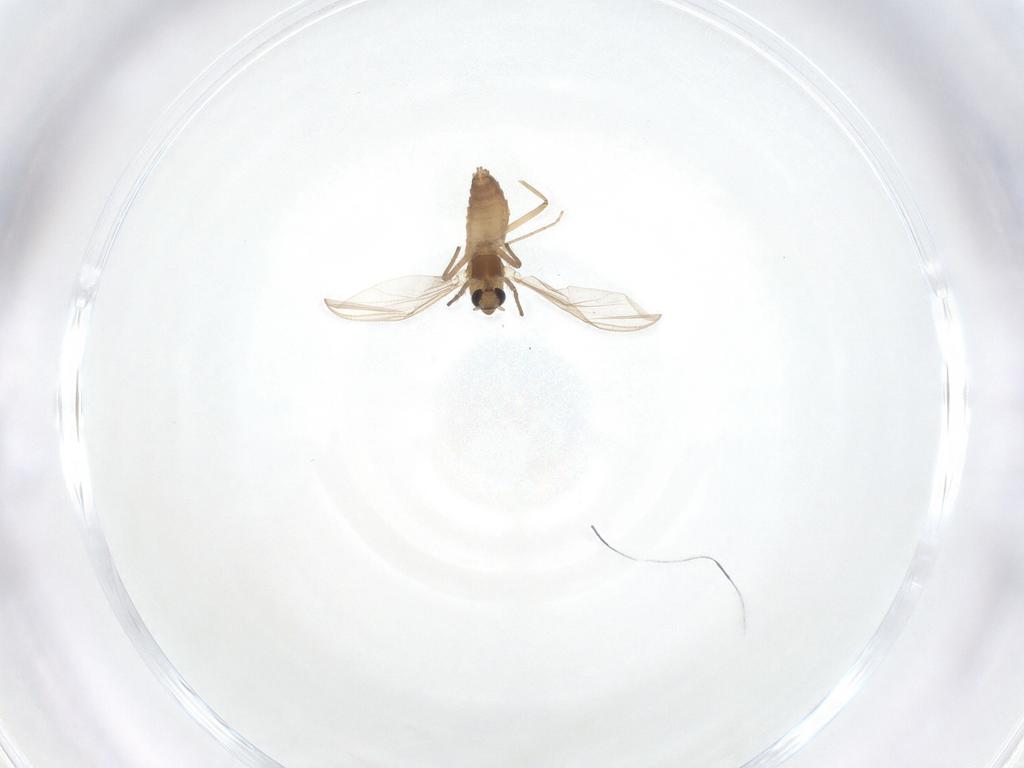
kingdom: Animalia
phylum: Arthropoda
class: Insecta
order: Diptera
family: Chironomidae
